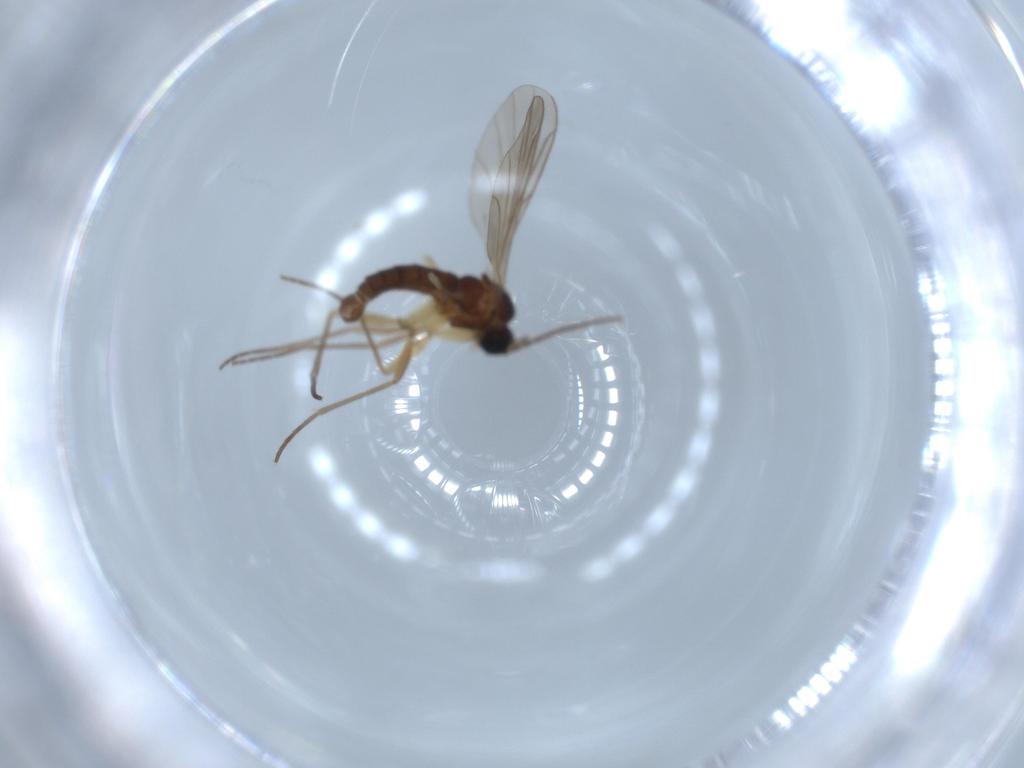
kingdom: Animalia
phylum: Arthropoda
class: Insecta
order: Diptera
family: Sciaridae
